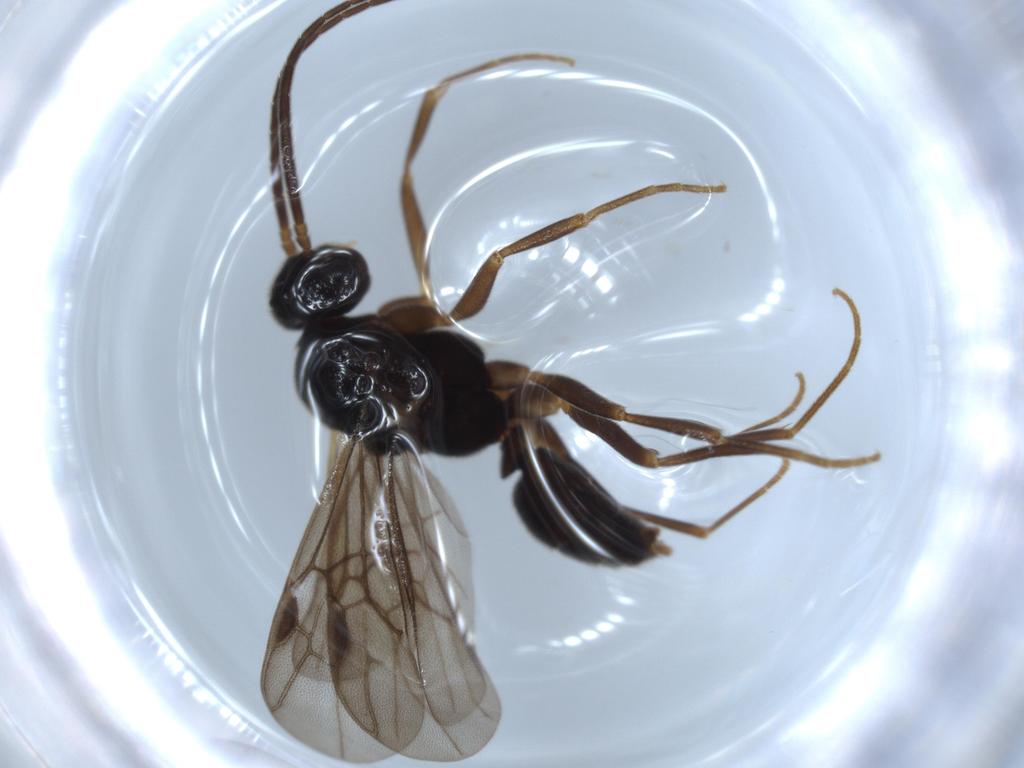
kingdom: Animalia
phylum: Arthropoda
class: Insecta
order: Hymenoptera
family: Formicidae
